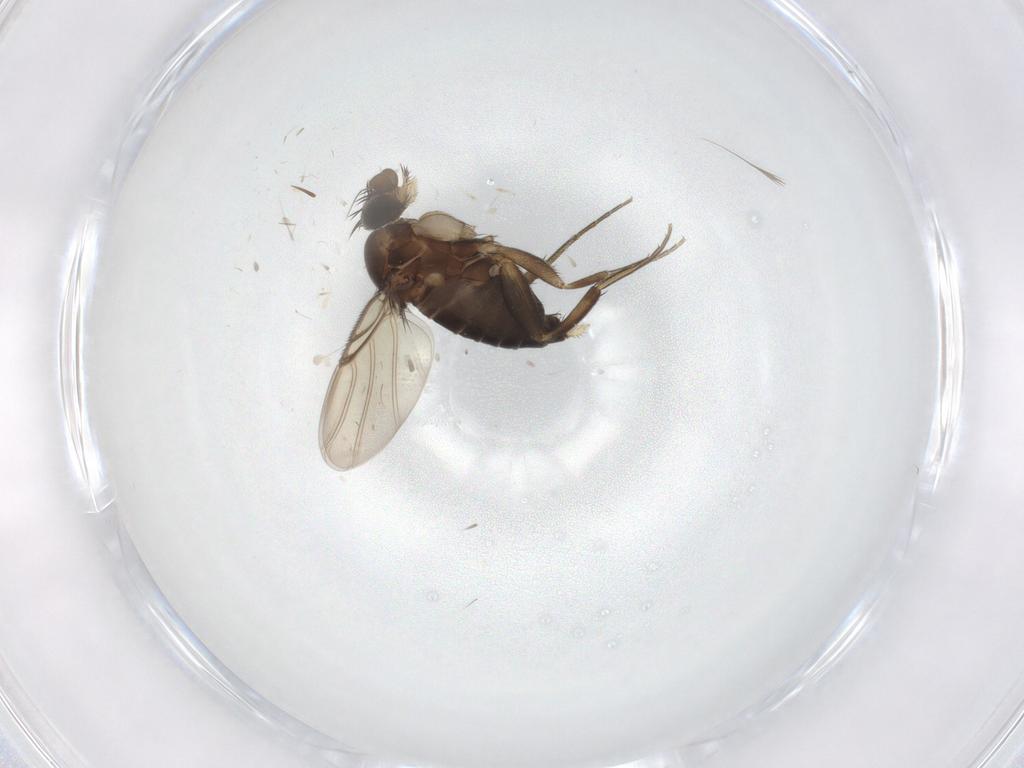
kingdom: Animalia
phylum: Arthropoda
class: Insecta
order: Diptera
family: Phoridae
